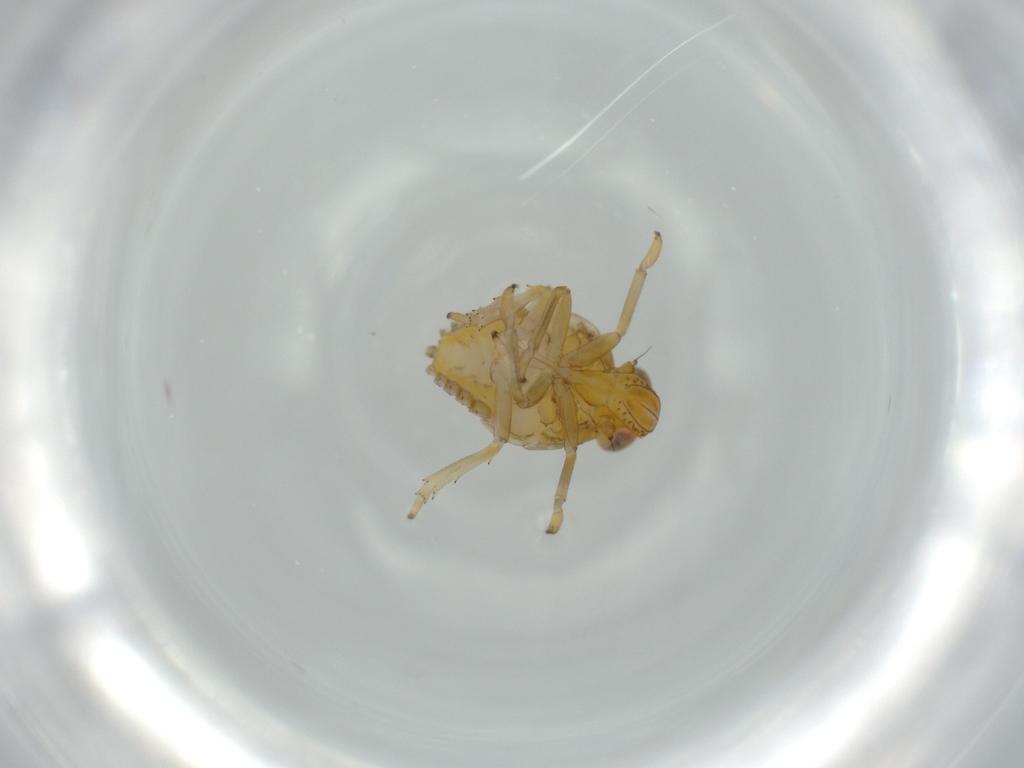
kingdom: Animalia
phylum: Arthropoda
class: Insecta
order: Hemiptera
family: Issidae
